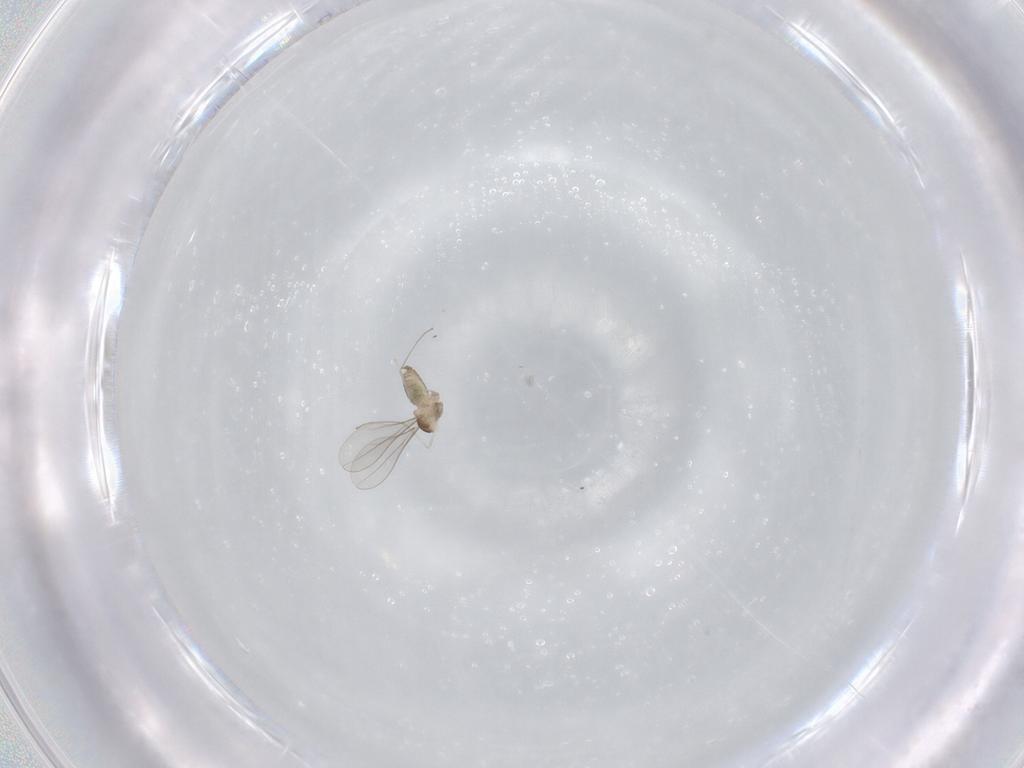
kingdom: Animalia
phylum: Arthropoda
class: Insecta
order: Diptera
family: Cecidomyiidae
